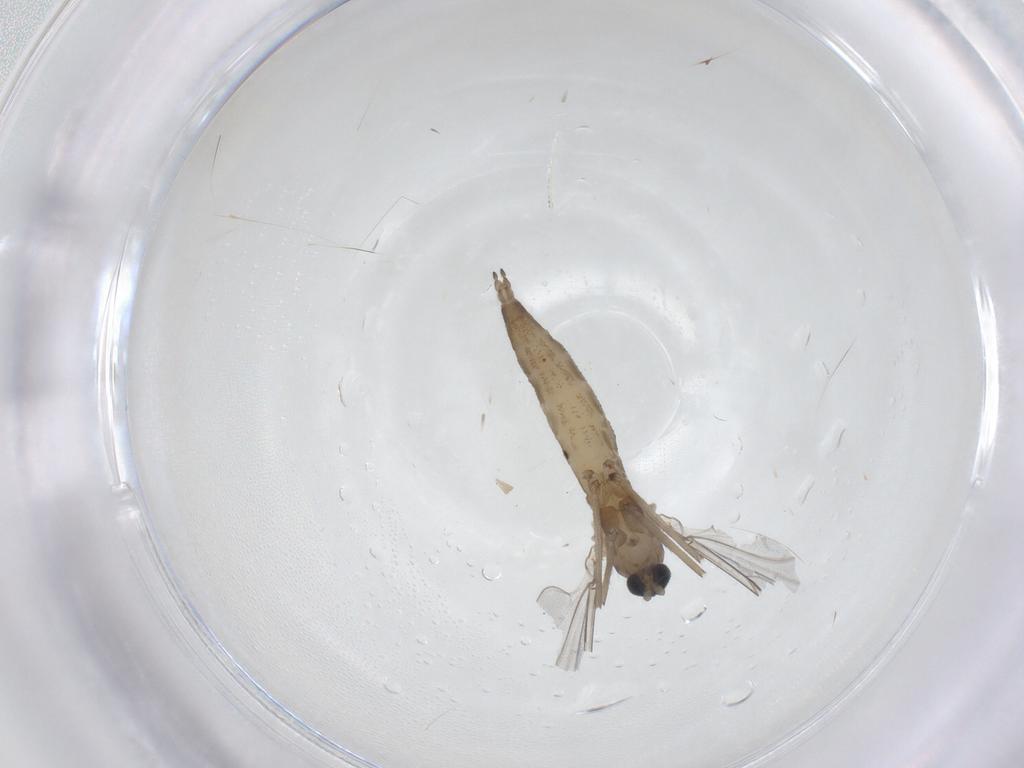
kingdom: Animalia
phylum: Arthropoda
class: Insecta
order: Diptera
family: Cecidomyiidae
